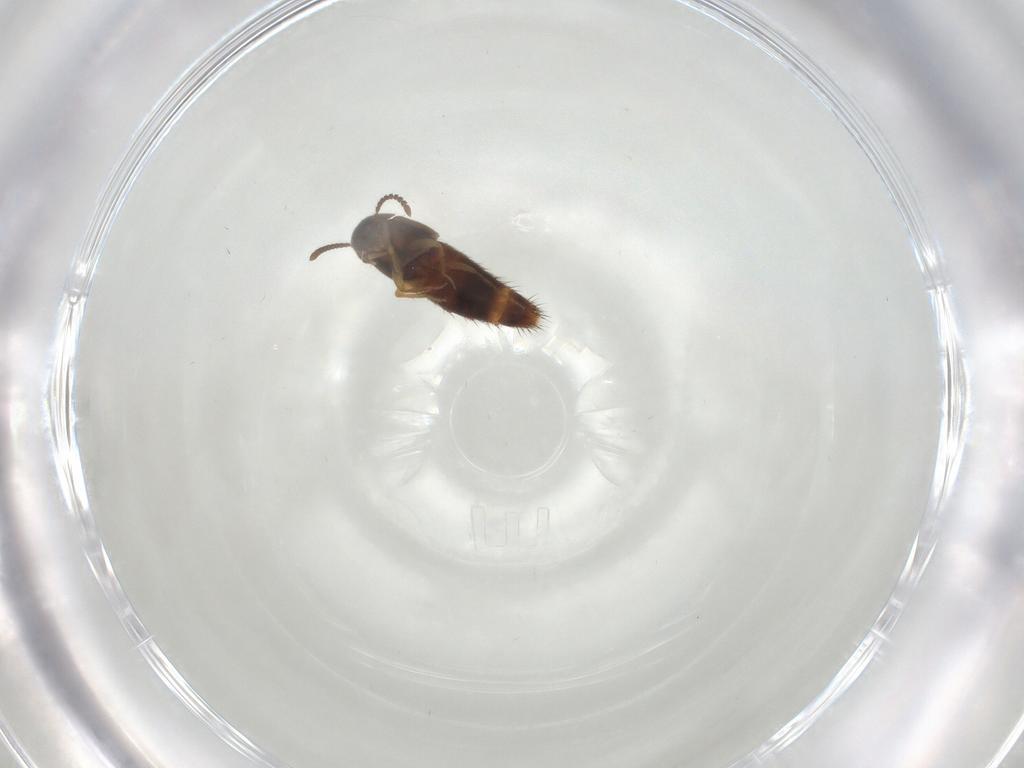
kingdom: Animalia
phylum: Arthropoda
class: Insecta
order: Coleoptera
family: Staphylinidae
